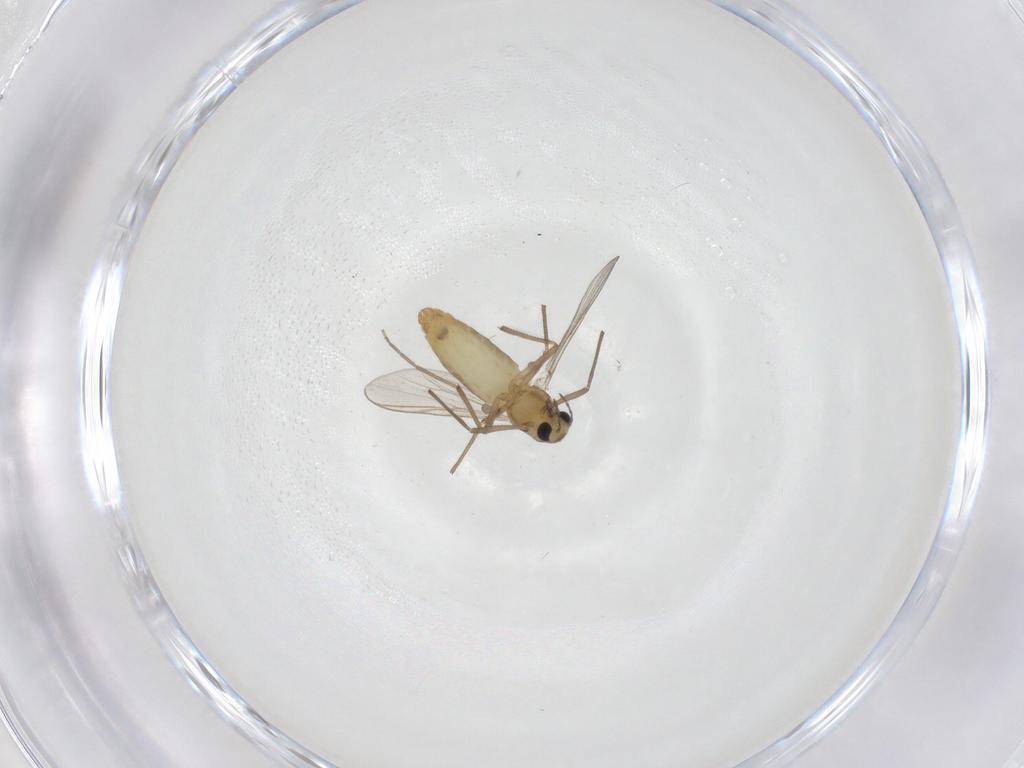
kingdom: Animalia
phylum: Arthropoda
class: Insecta
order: Diptera
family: Chironomidae
